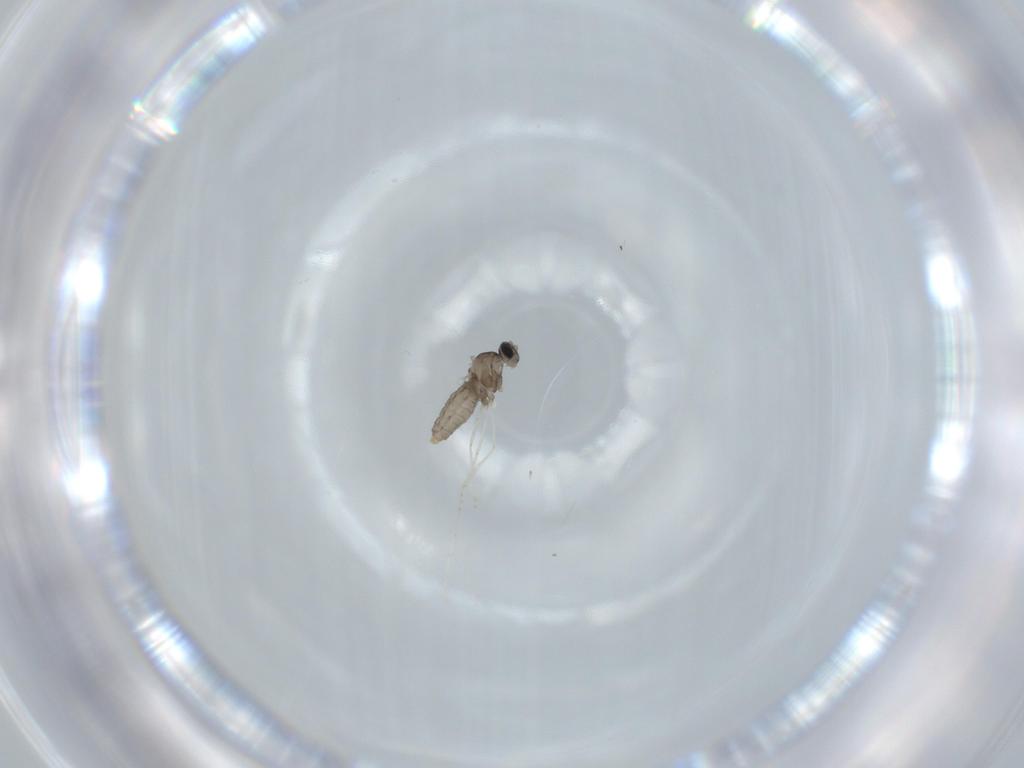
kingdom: Animalia
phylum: Arthropoda
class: Insecta
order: Diptera
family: Cecidomyiidae
